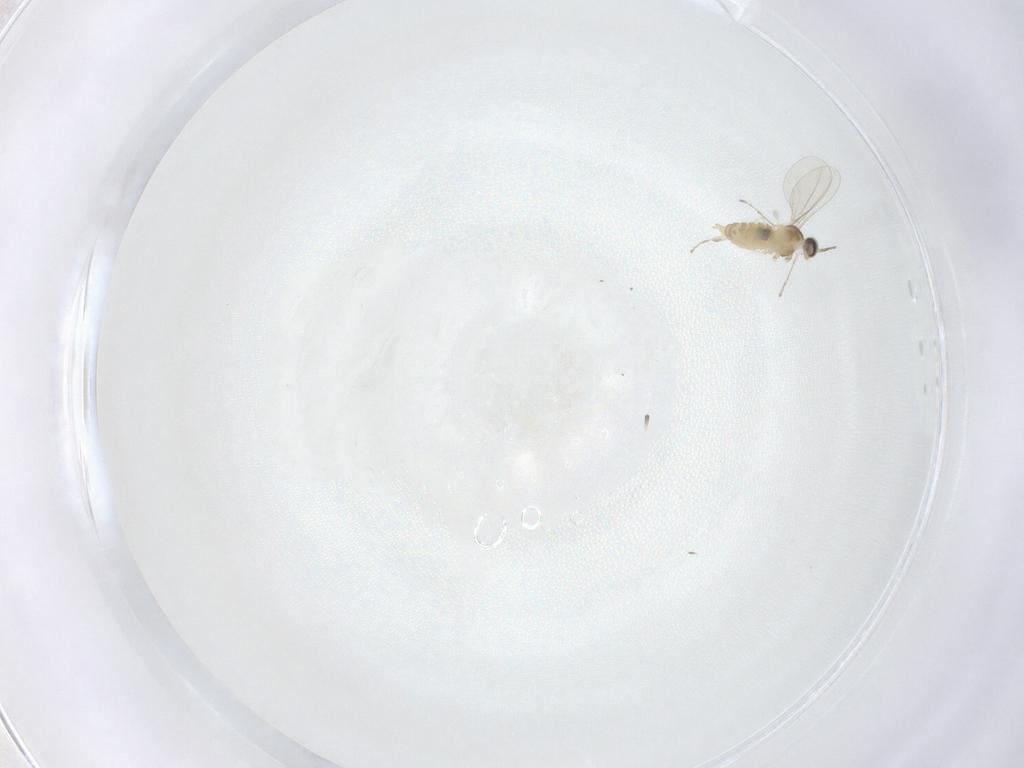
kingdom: Animalia
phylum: Arthropoda
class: Insecta
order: Diptera
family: Cecidomyiidae
